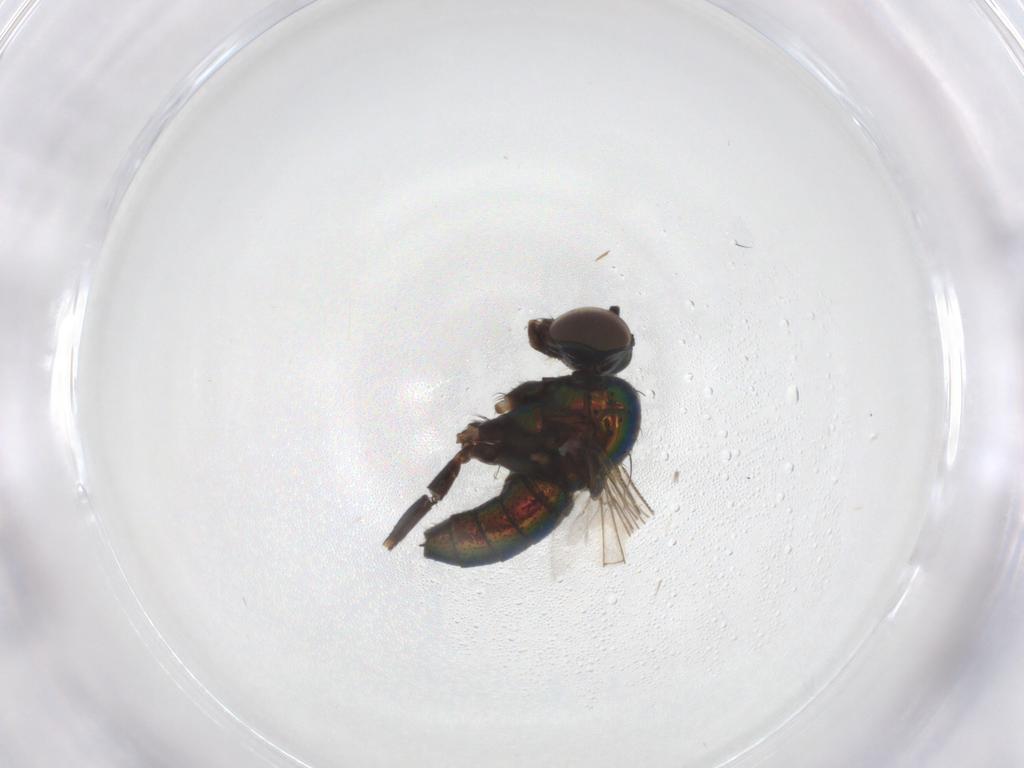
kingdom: Animalia
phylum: Arthropoda
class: Insecta
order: Diptera
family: Dolichopodidae
